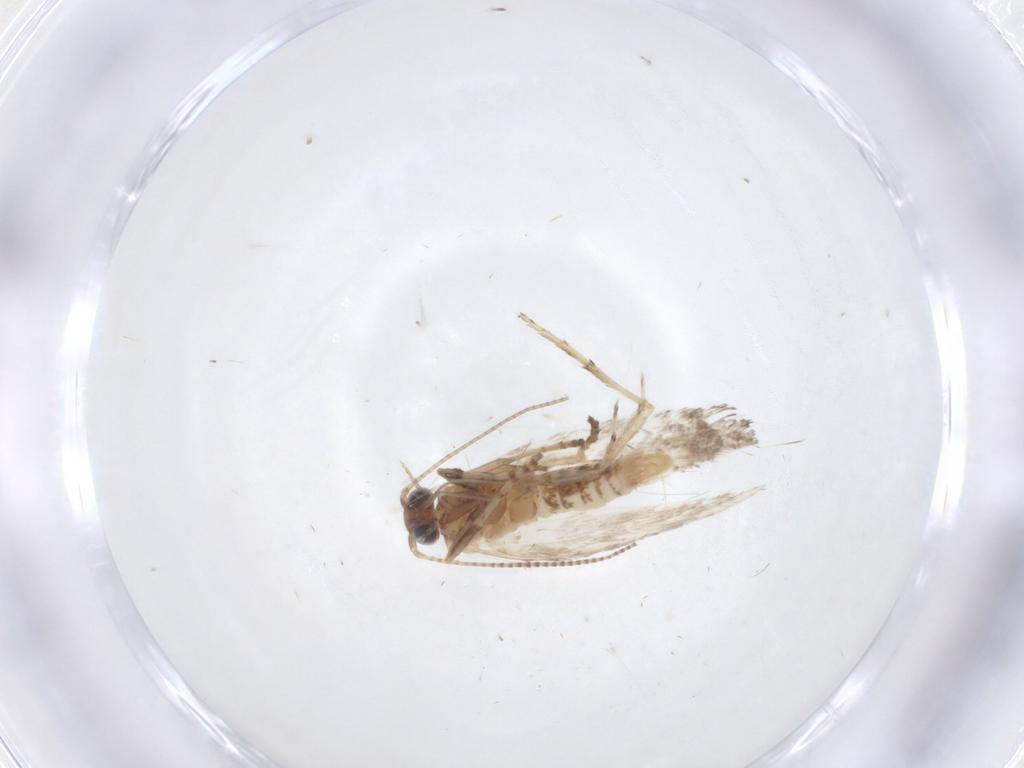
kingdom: Animalia
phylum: Arthropoda
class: Insecta
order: Lepidoptera
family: Gracillariidae
